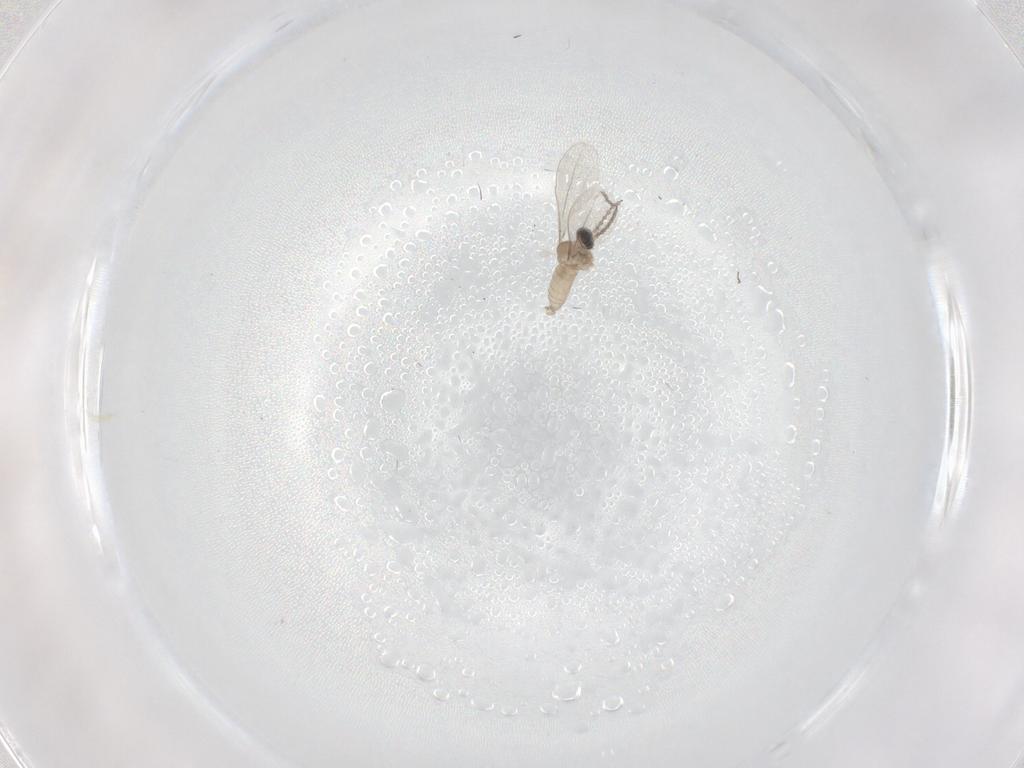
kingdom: Animalia
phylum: Arthropoda
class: Insecta
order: Diptera
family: Cecidomyiidae
